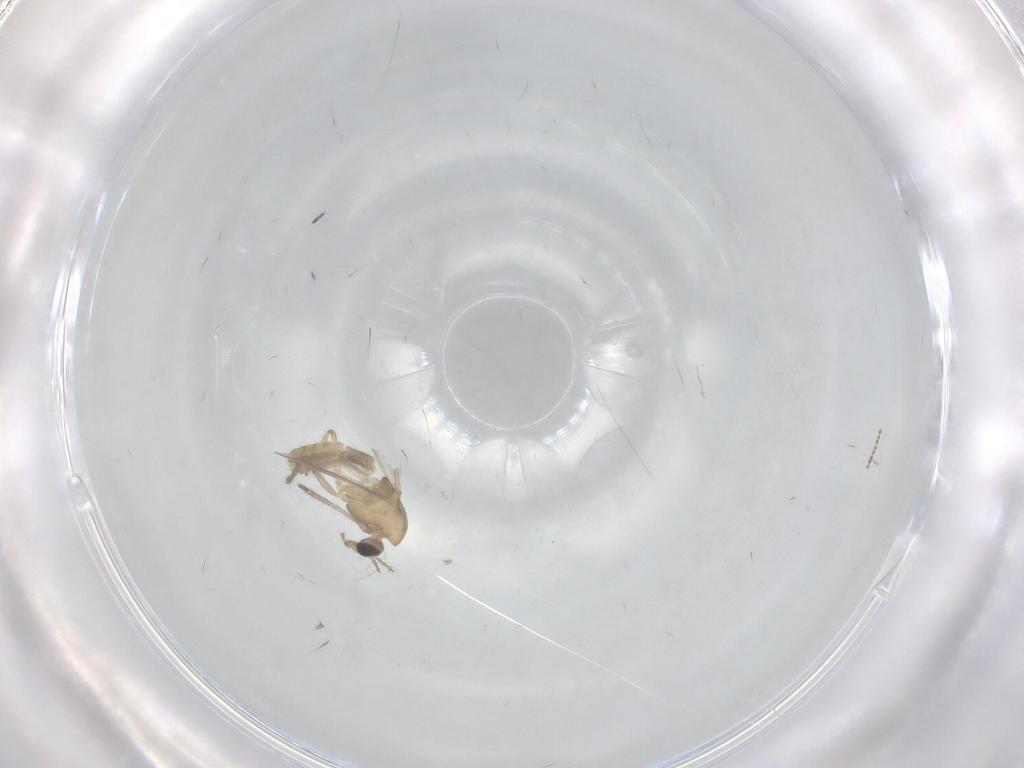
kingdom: Animalia
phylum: Arthropoda
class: Insecta
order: Diptera
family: Chironomidae
